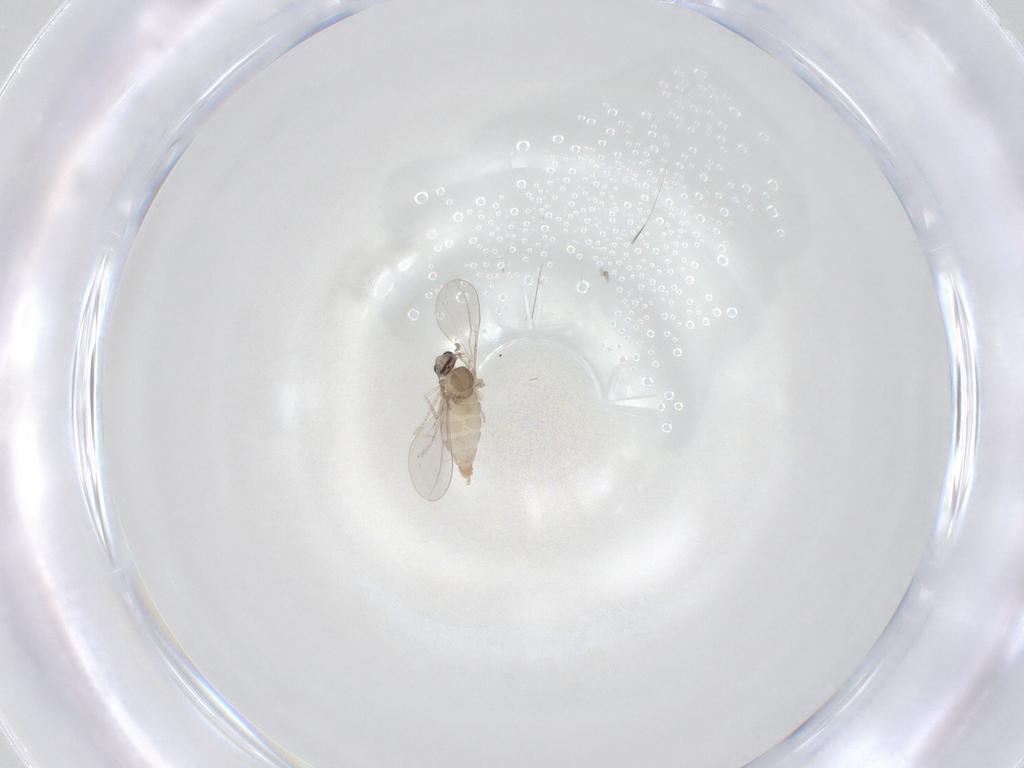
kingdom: Animalia
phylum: Arthropoda
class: Insecta
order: Diptera
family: Cecidomyiidae
